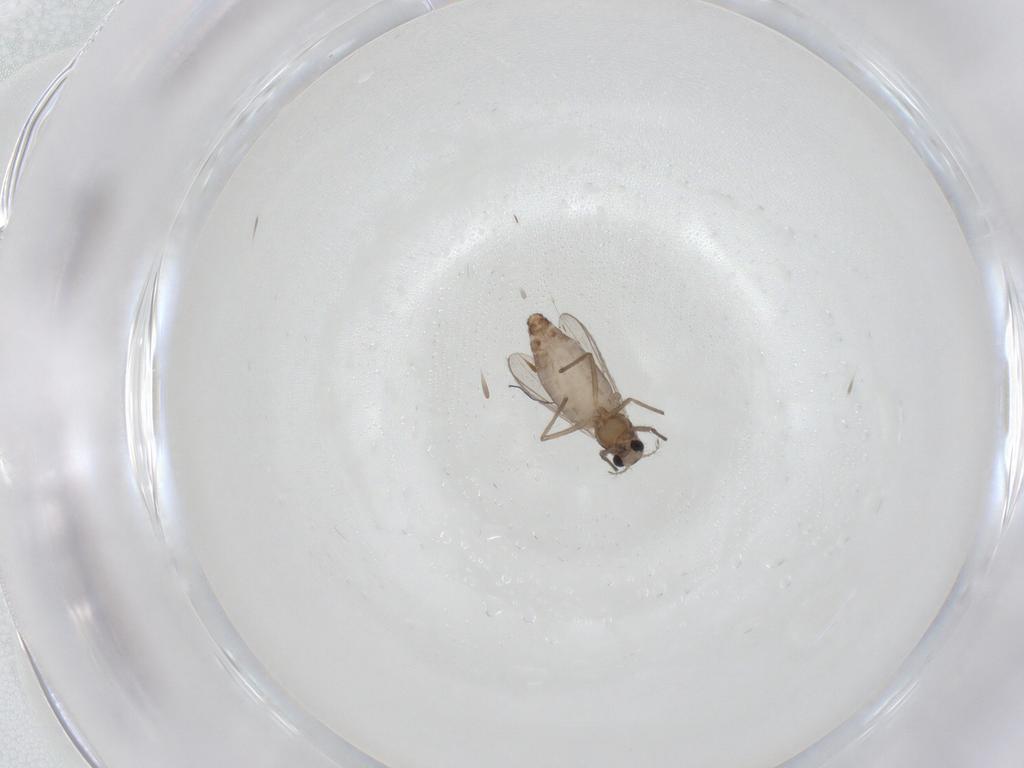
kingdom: Animalia
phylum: Arthropoda
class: Insecta
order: Diptera
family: Chironomidae
